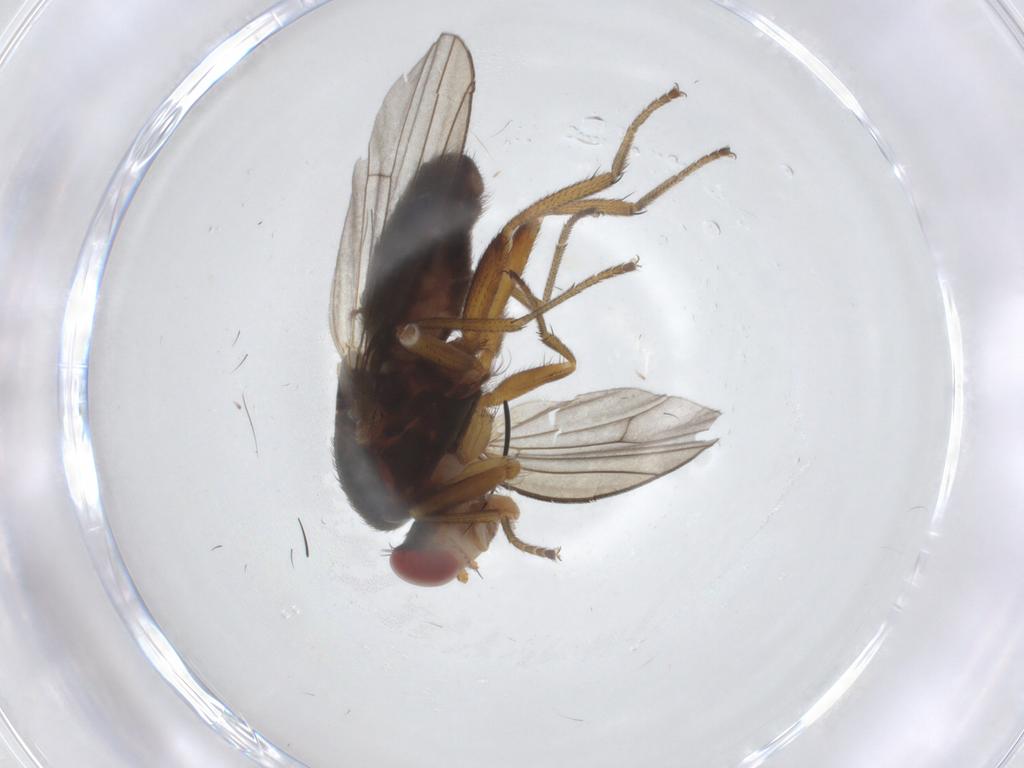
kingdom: Animalia
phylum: Arthropoda
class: Insecta
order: Diptera
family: Diastatidae
